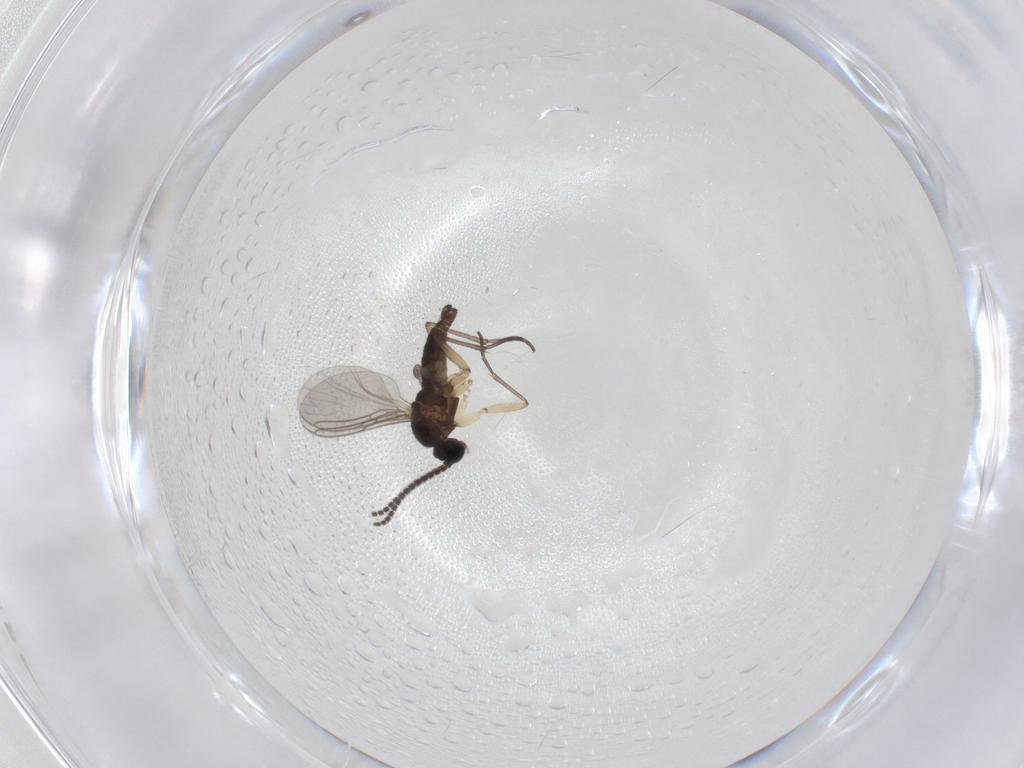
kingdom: Animalia
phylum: Arthropoda
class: Insecta
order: Diptera
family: Sciaridae
